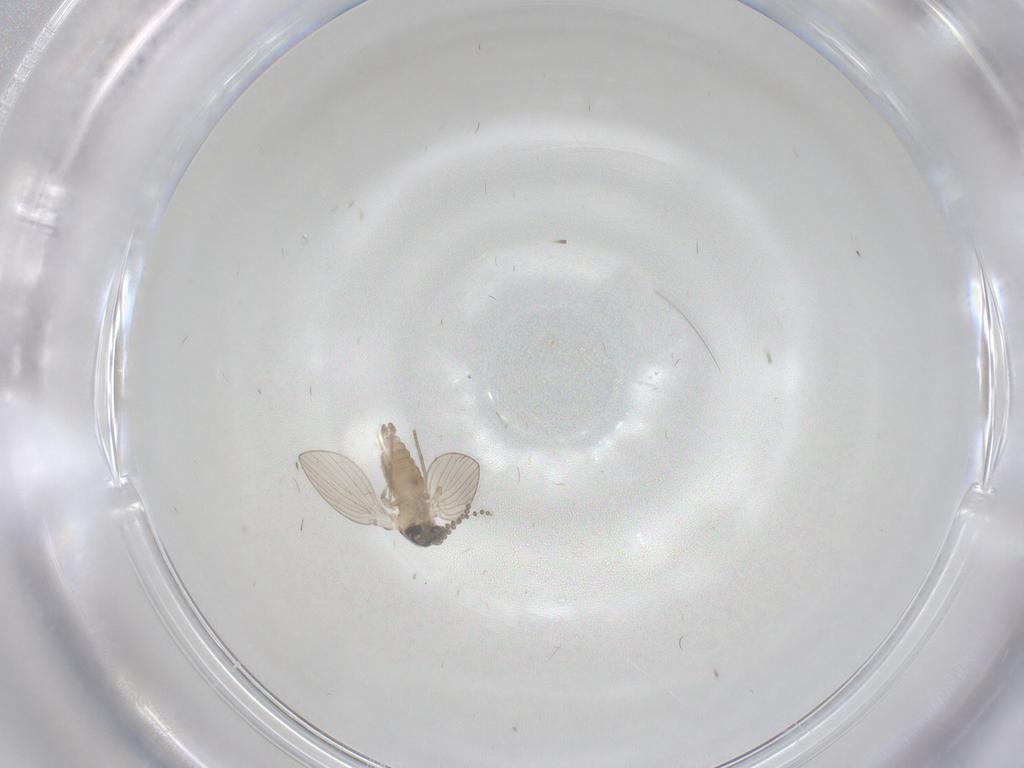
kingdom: Animalia
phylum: Arthropoda
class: Insecta
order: Diptera
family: Psychodidae
